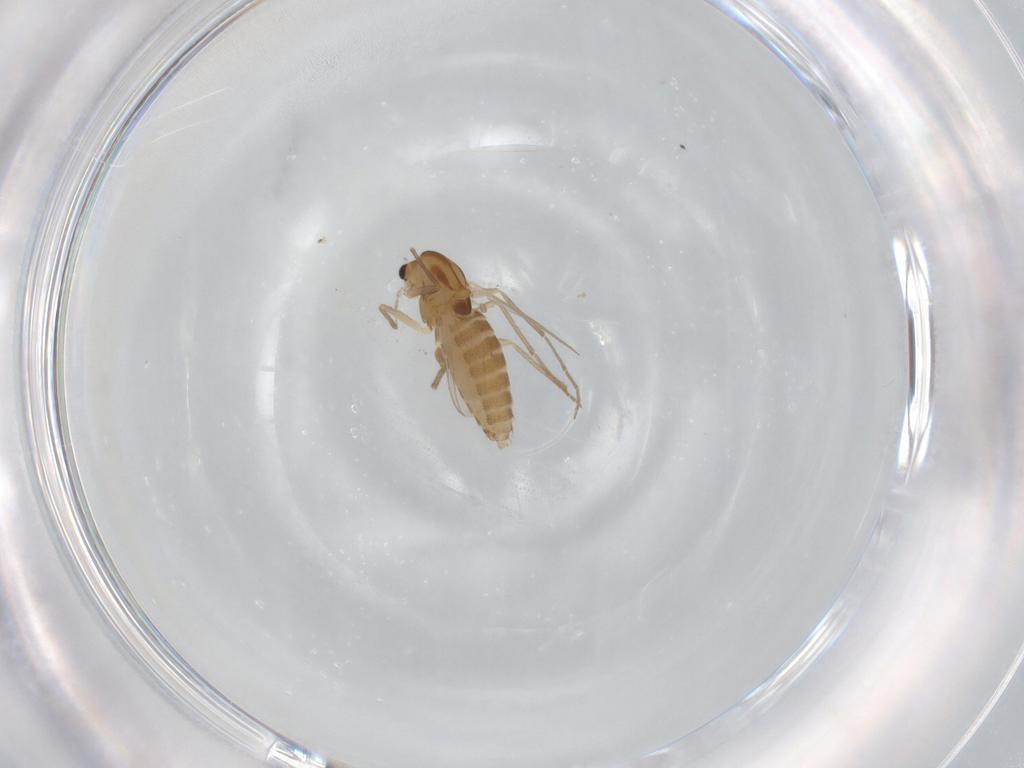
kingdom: Animalia
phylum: Arthropoda
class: Insecta
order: Diptera
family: Chironomidae
